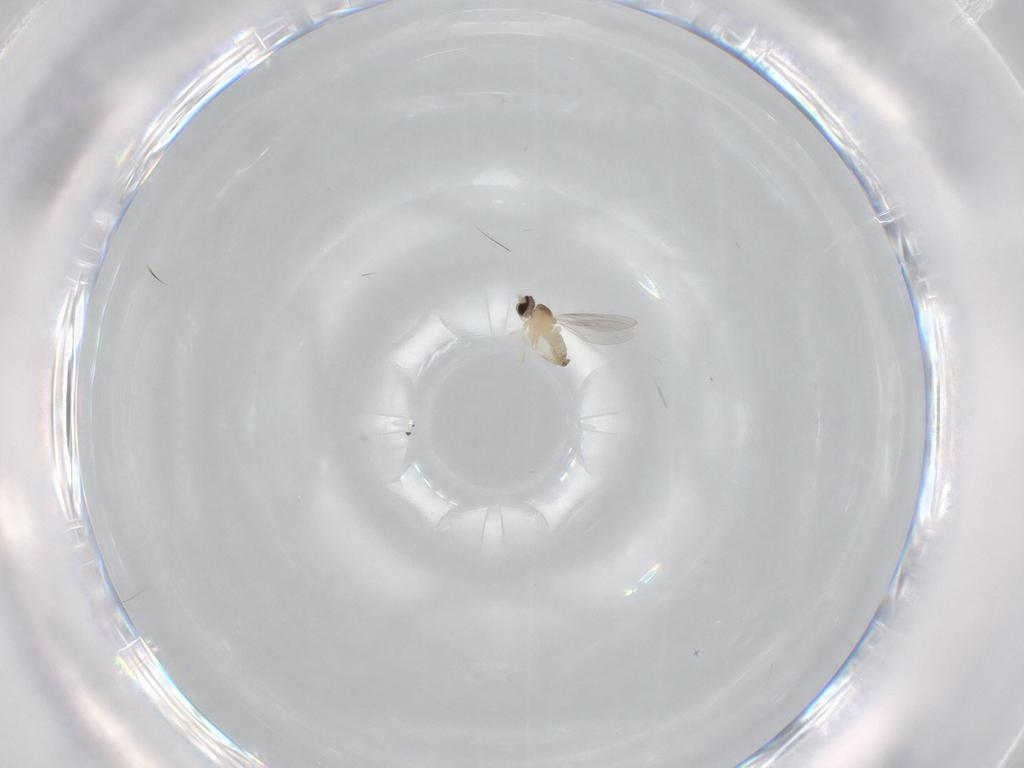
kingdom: Animalia
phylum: Arthropoda
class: Insecta
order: Diptera
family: Cecidomyiidae
